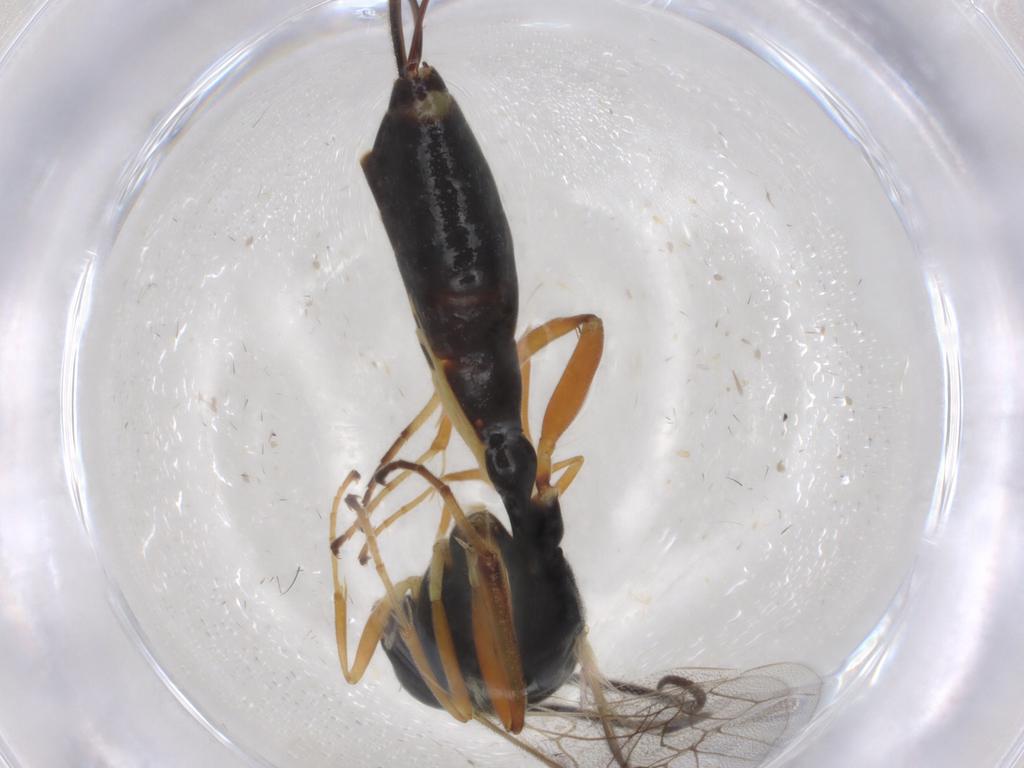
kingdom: Animalia
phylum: Arthropoda
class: Insecta
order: Hymenoptera
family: Ichneumonidae
